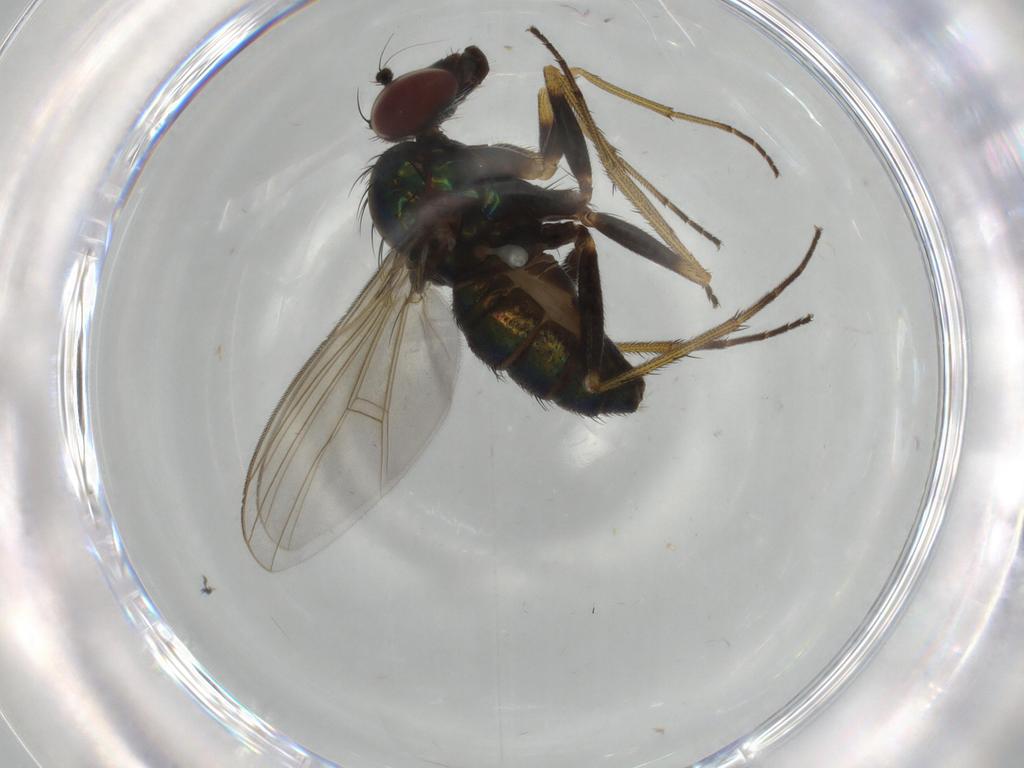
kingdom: Animalia
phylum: Arthropoda
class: Insecta
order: Diptera
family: Dolichopodidae
